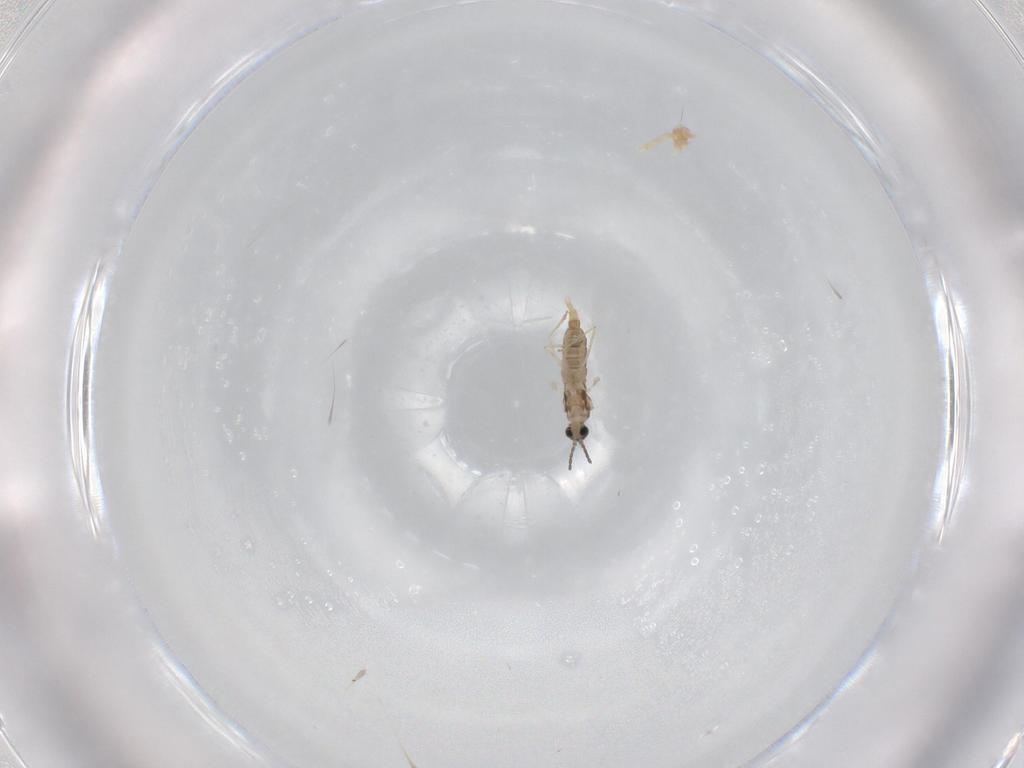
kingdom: Animalia
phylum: Arthropoda
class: Insecta
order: Diptera
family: Cecidomyiidae
